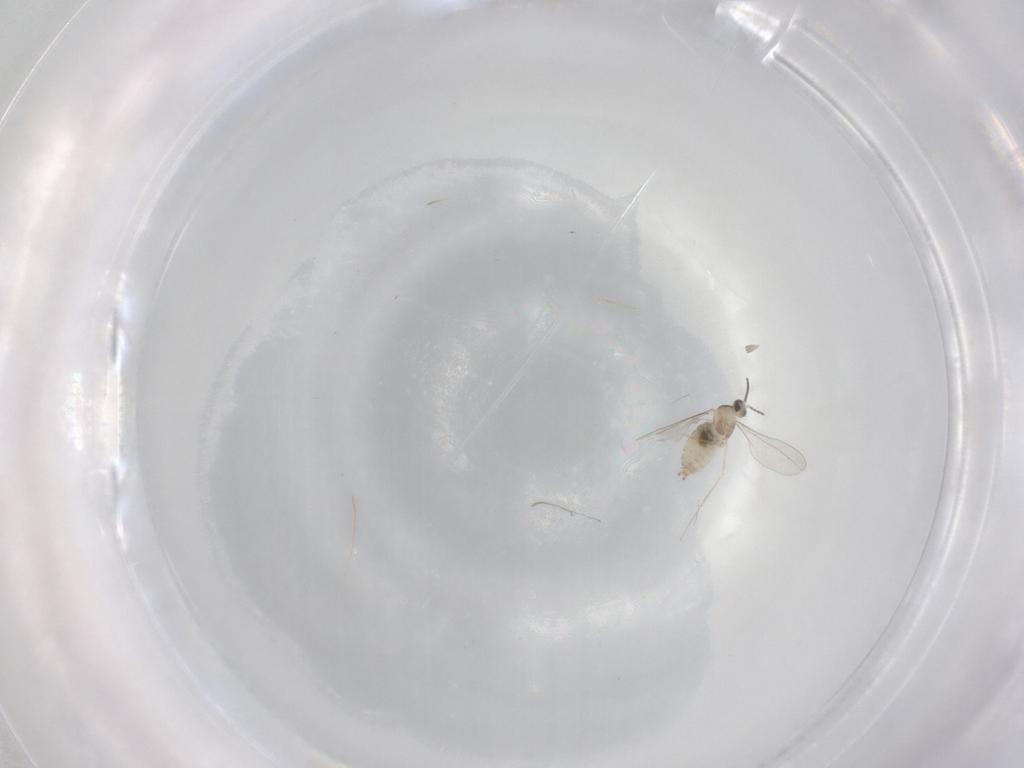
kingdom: Animalia
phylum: Arthropoda
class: Insecta
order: Diptera
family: Cecidomyiidae
